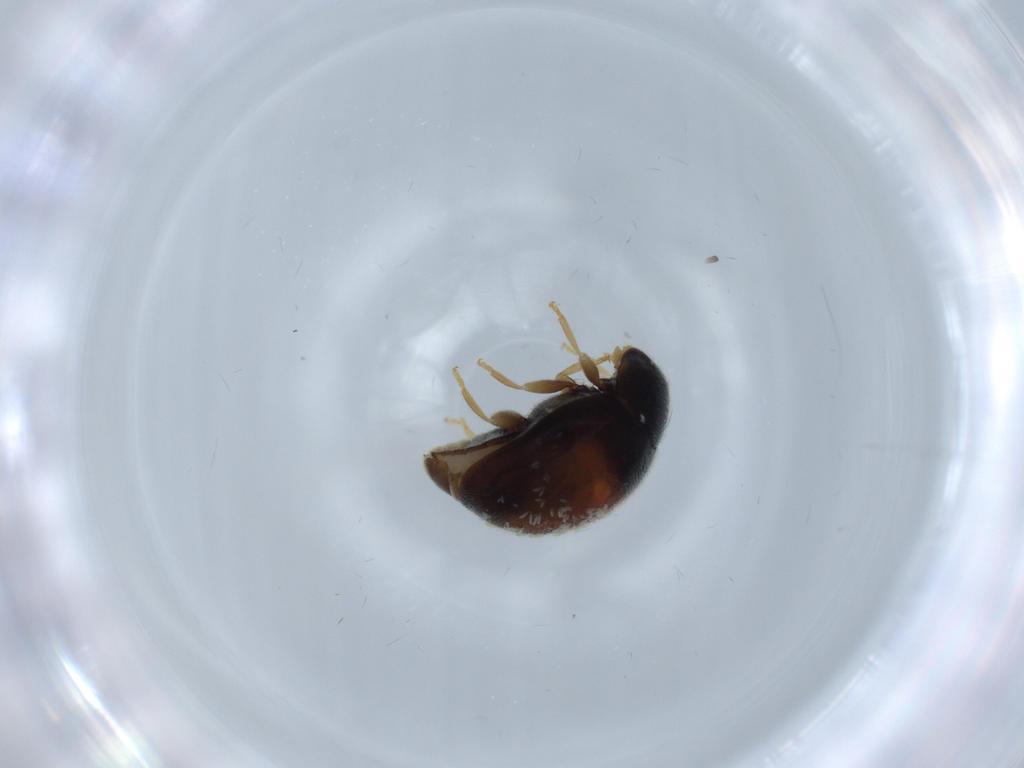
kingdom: Animalia
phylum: Arthropoda
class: Insecta
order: Coleoptera
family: Coccinellidae
